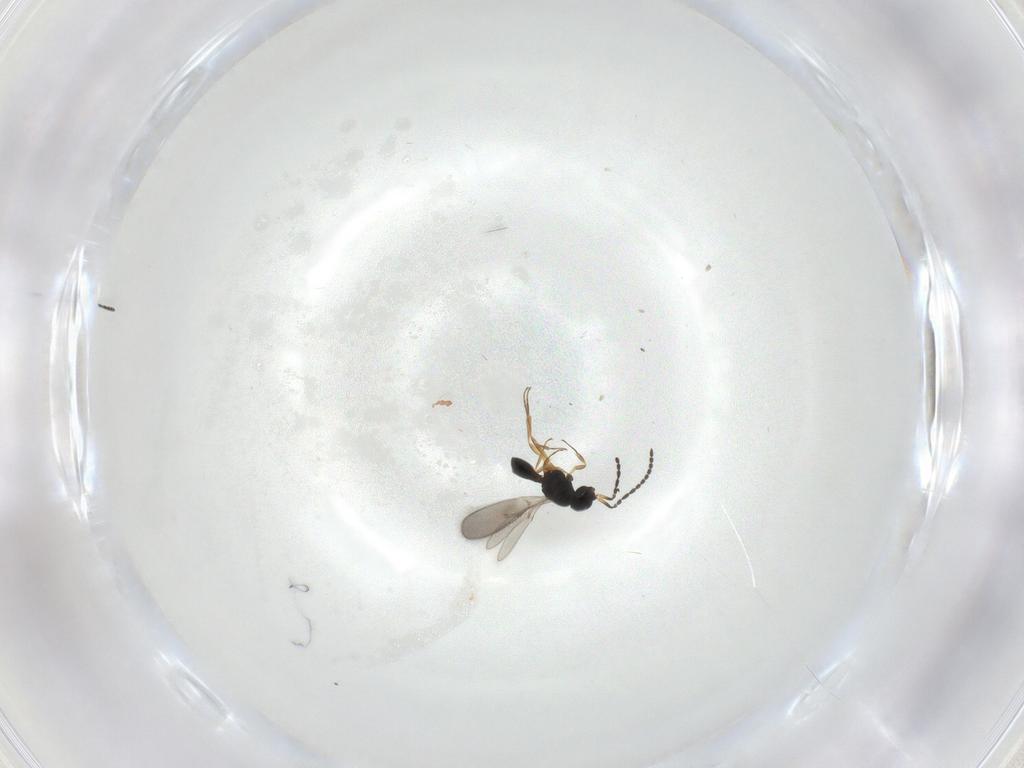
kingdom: Animalia
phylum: Arthropoda
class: Insecta
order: Hymenoptera
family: Scelionidae
